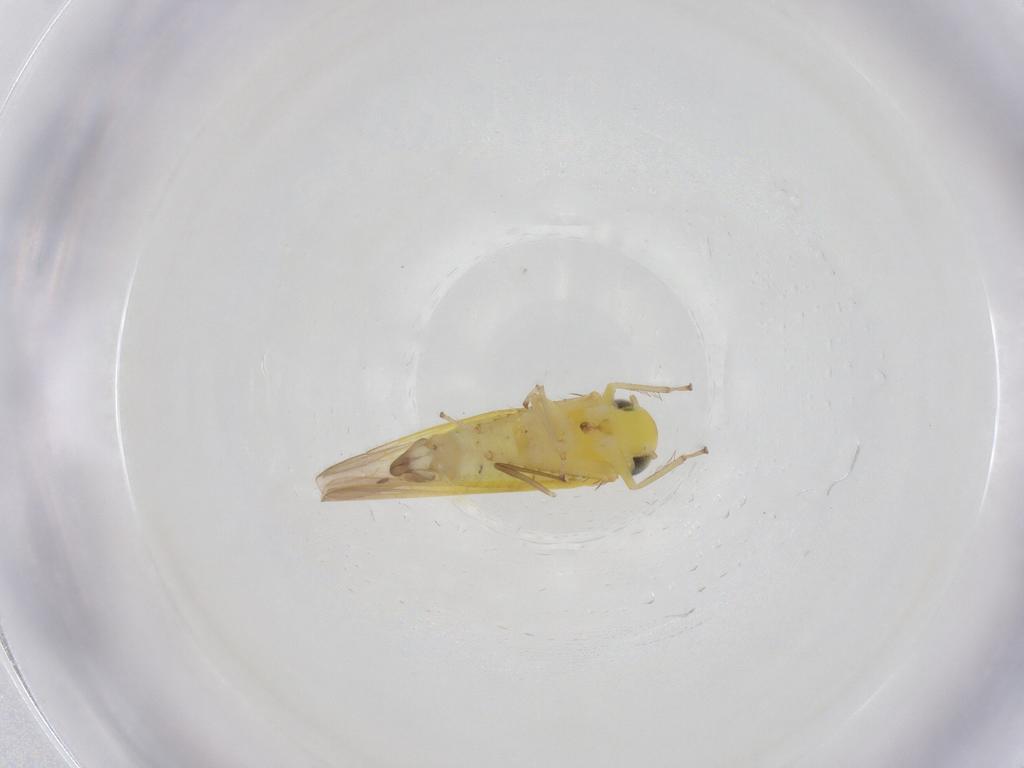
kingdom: Animalia
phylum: Arthropoda
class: Insecta
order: Hemiptera
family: Cicadellidae
